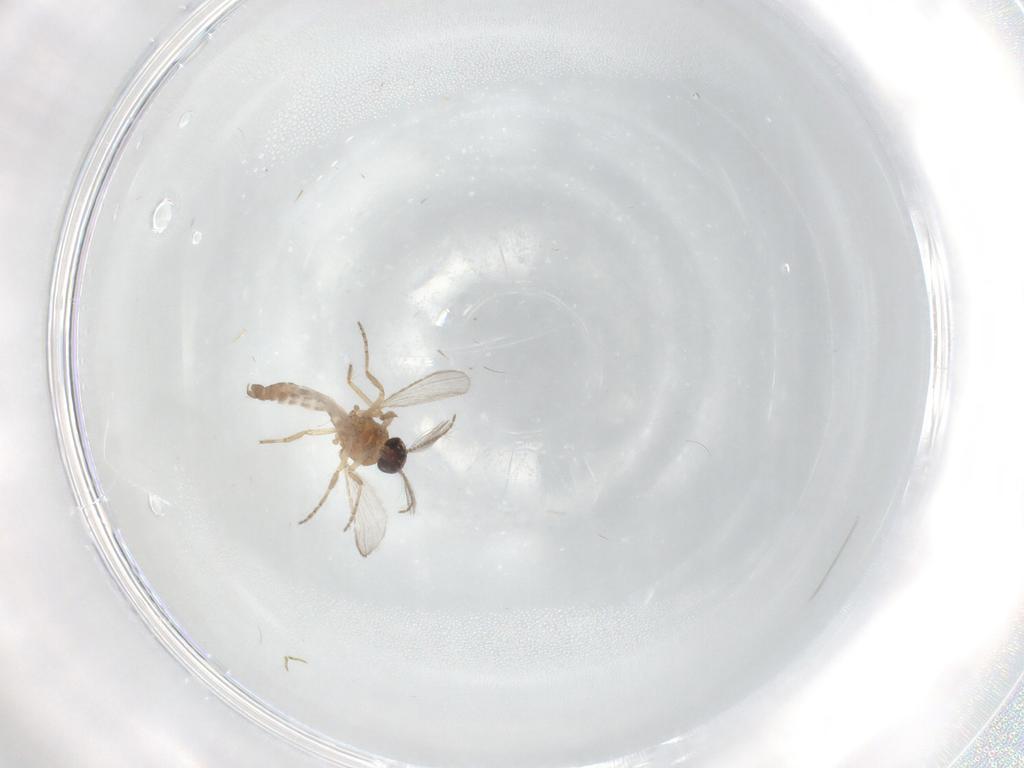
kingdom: Animalia
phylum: Arthropoda
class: Insecta
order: Diptera
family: Ceratopogonidae
